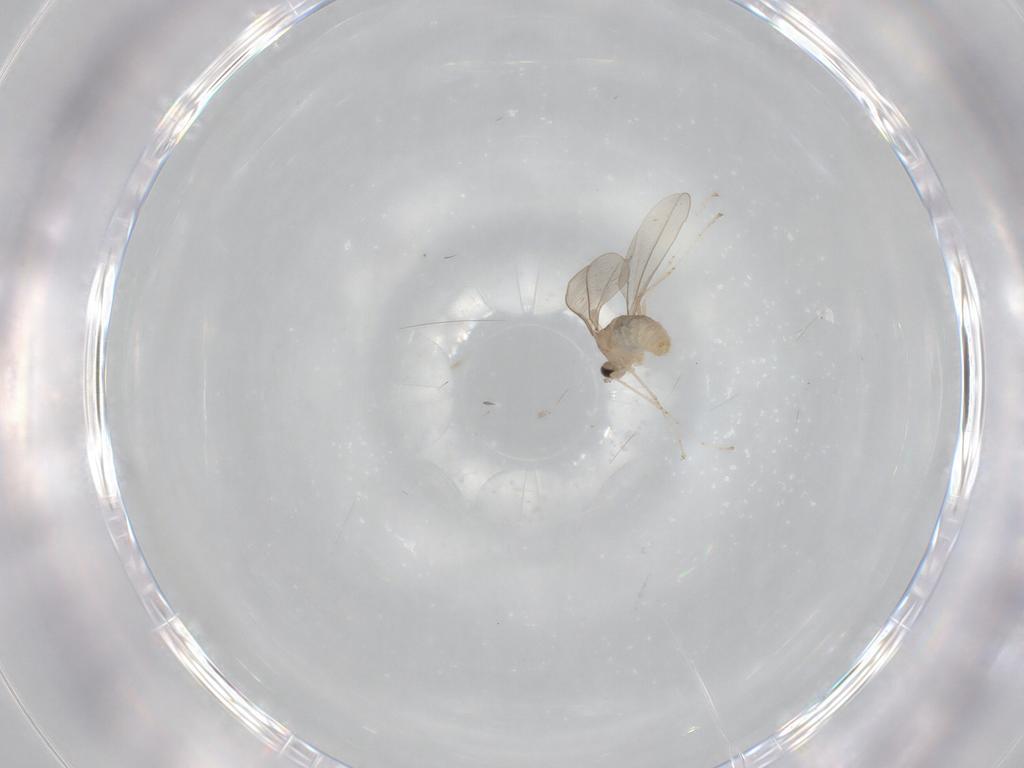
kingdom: Animalia
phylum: Arthropoda
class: Insecta
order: Diptera
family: Cecidomyiidae
